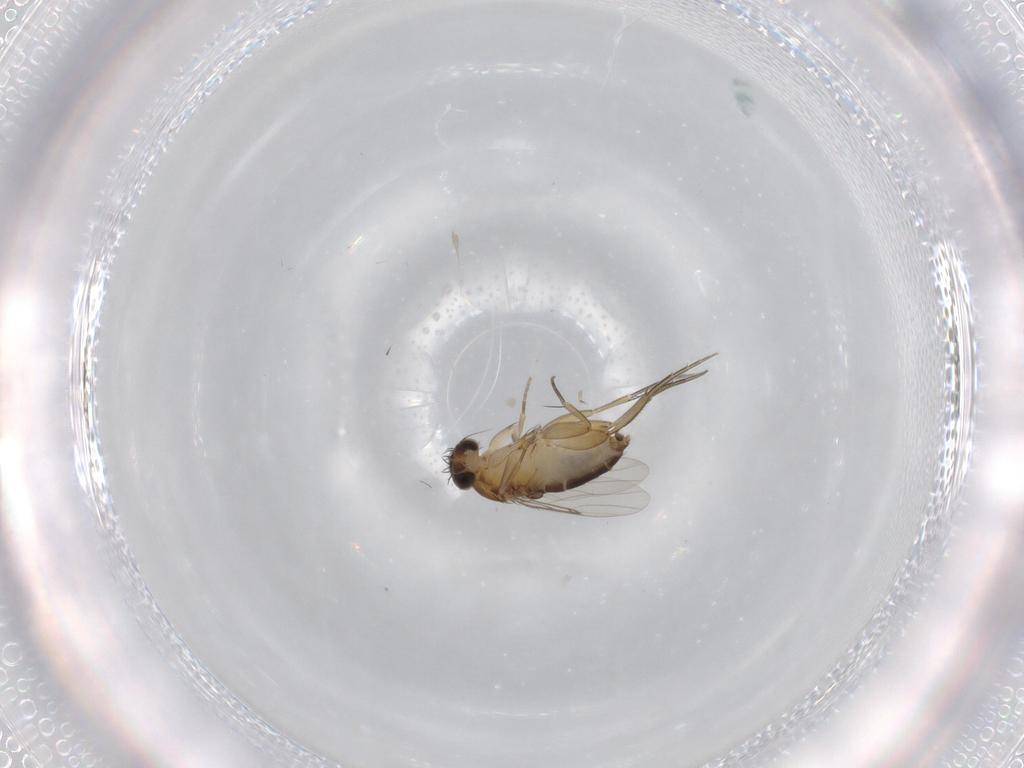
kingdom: Animalia
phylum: Arthropoda
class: Insecta
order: Diptera
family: Phoridae
